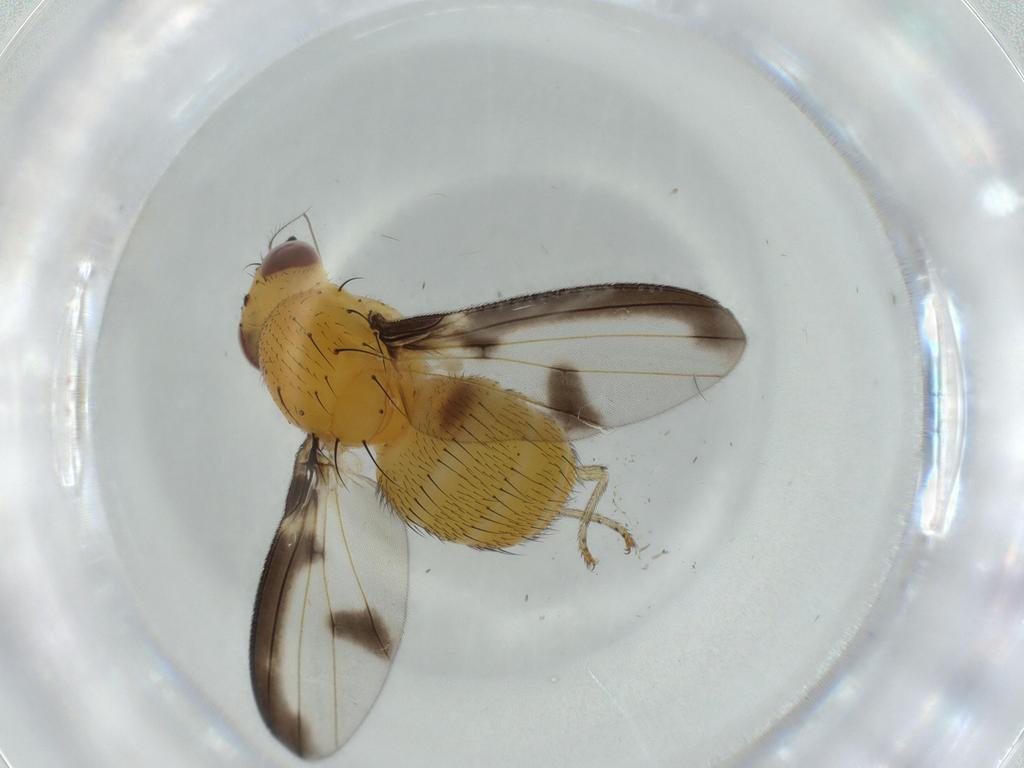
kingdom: Animalia
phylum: Arthropoda
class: Insecta
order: Diptera
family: Lauxaniidae
